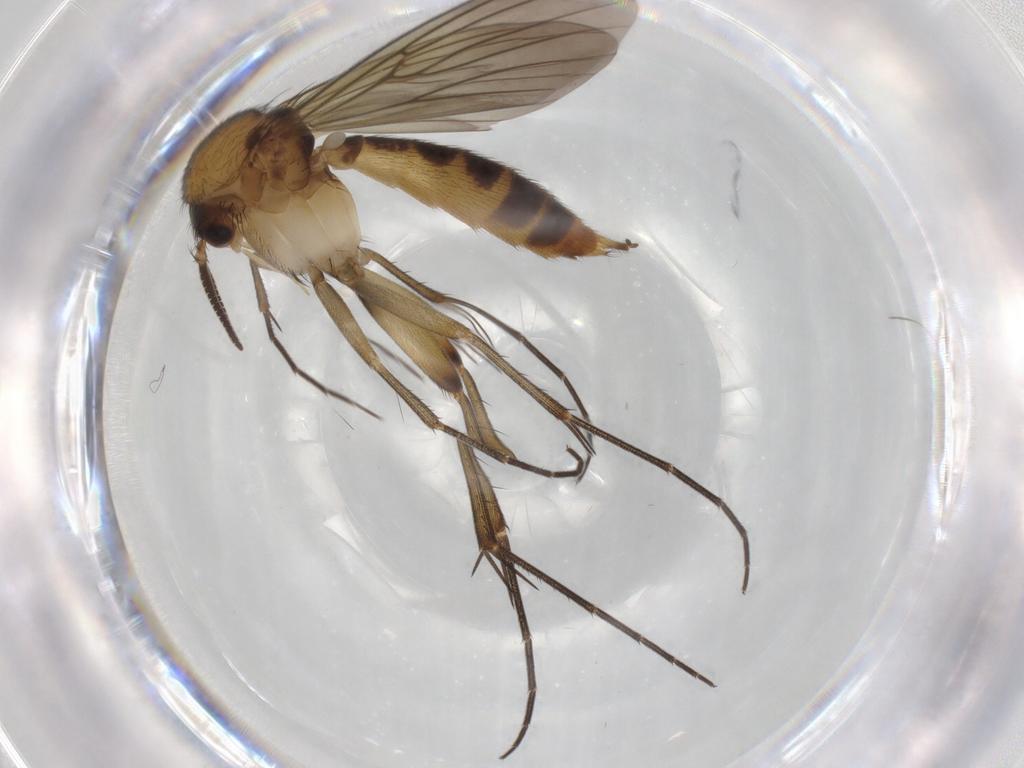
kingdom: Animalia
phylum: Arthropoda
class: Insecta
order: Diptera
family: Mycetophilidae
